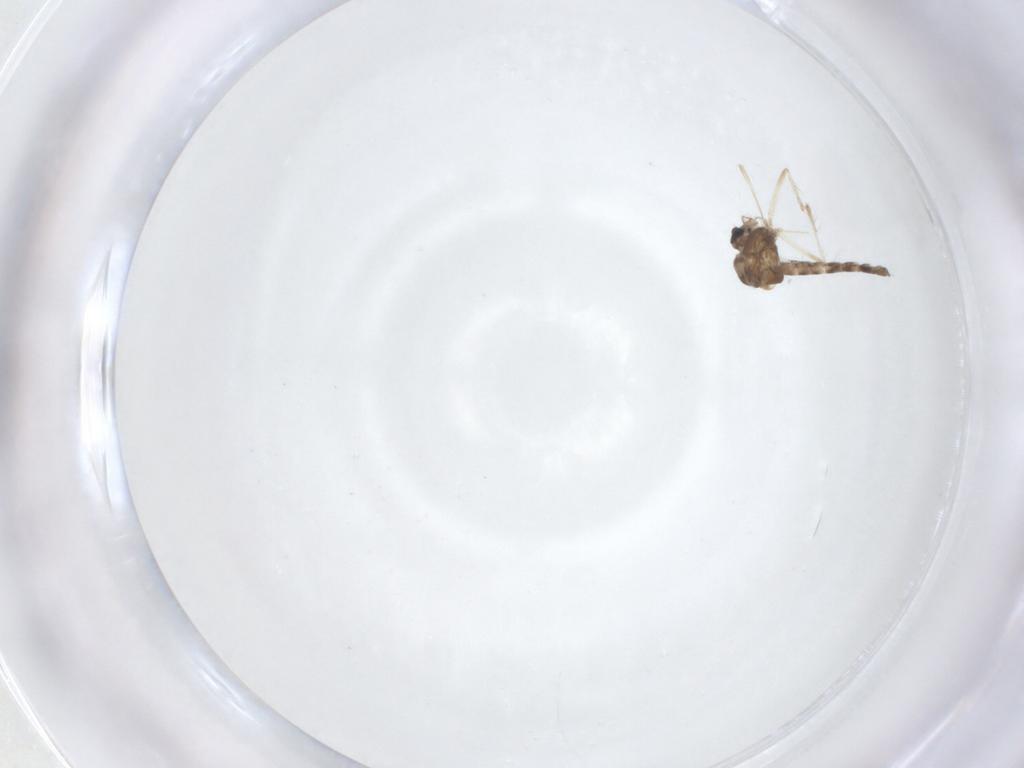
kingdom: Animalia
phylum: Arthropoda
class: Insecta
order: Diptera
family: Chironomidae
